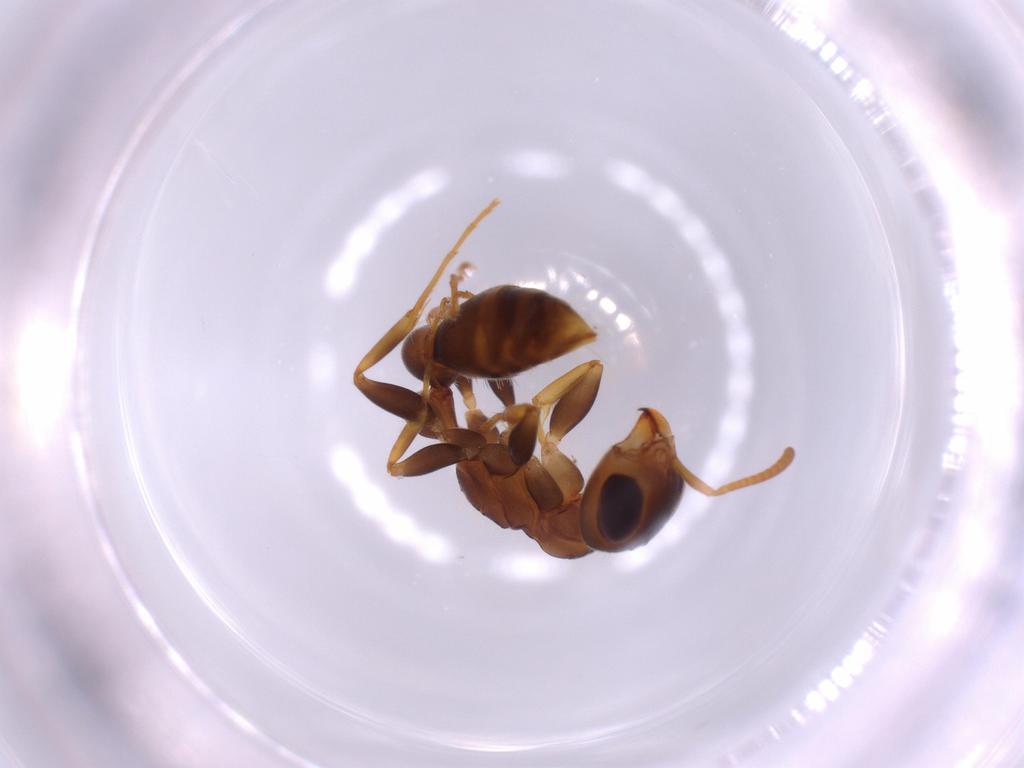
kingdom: Animalia
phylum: Arthropoda
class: Insecta
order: Hymenoptera
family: Formicidae
